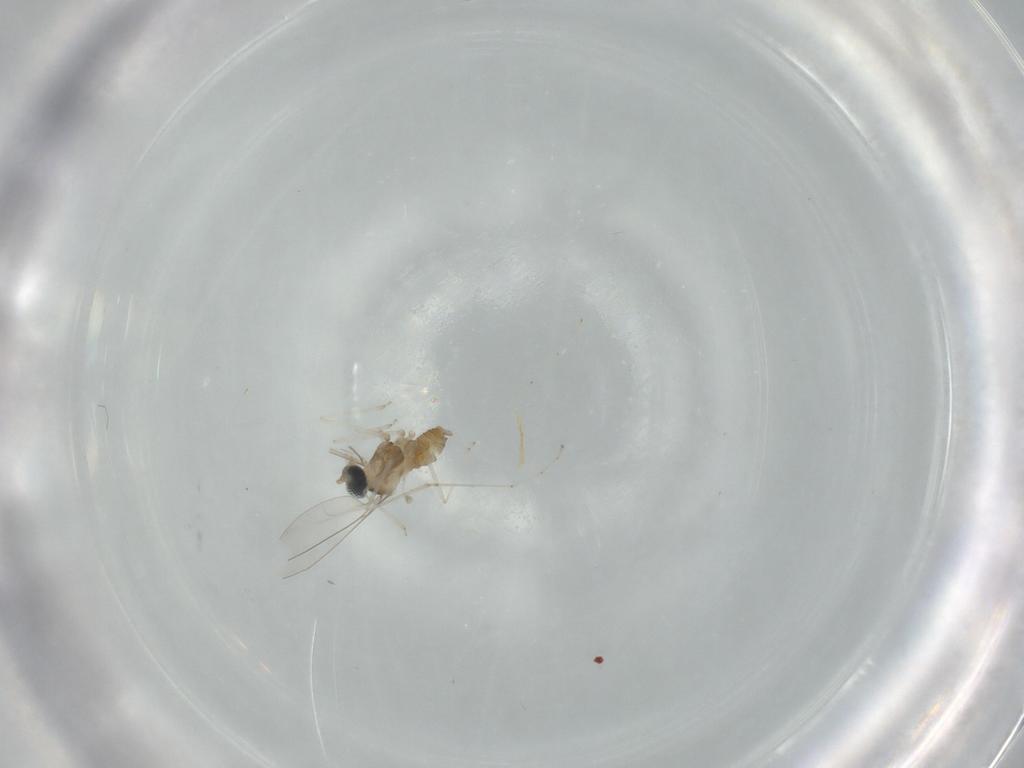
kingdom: Animalia
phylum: Arthropoda
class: Insecta
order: Diptera
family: Cecidomyiidae
